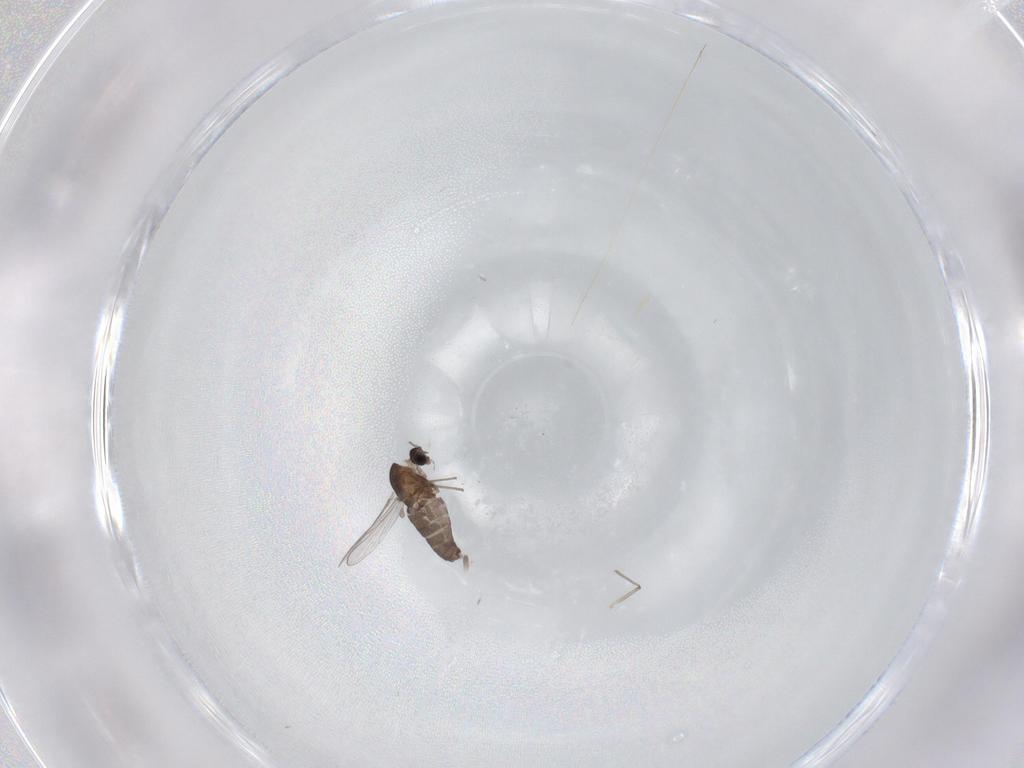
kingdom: Animalia
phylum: Arthropoda
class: Insecta
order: Diptera
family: Chironomidae
